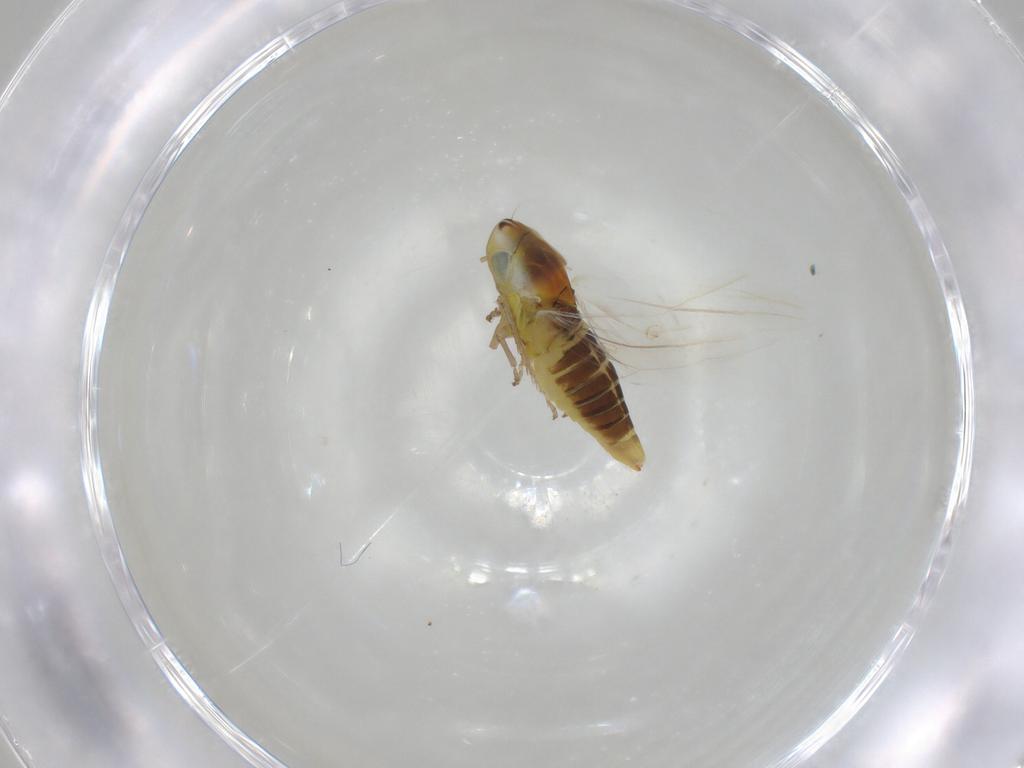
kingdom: Animalia
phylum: Arthropoda
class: Insecta
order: Hemiptera
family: Cicadellidae
